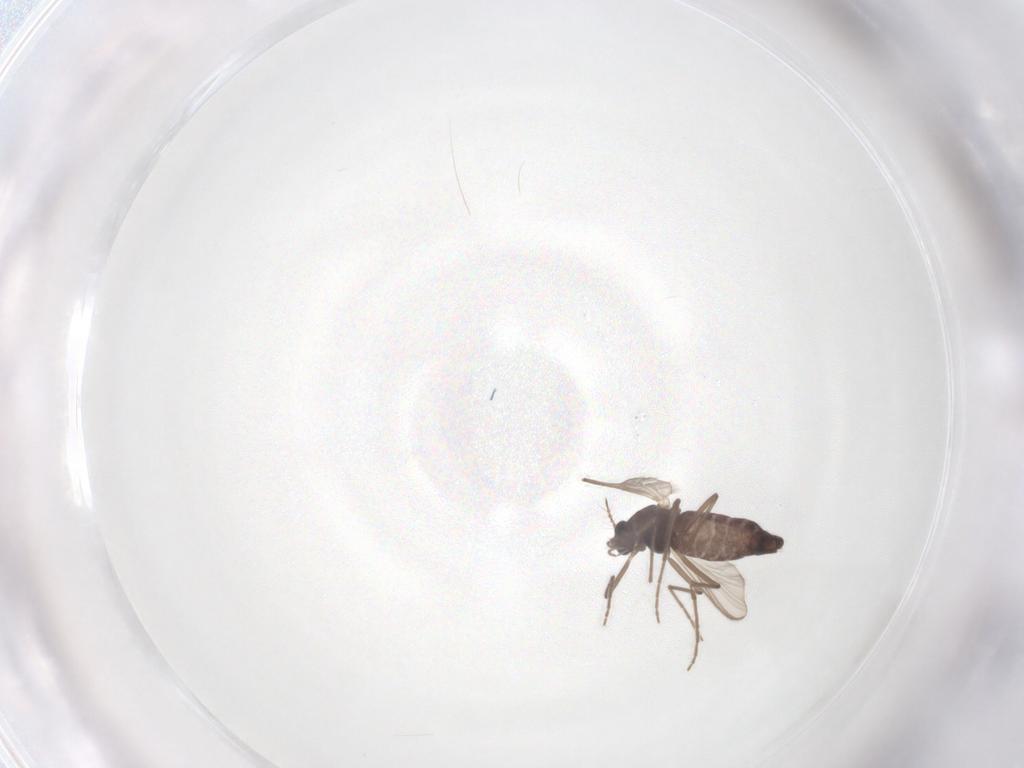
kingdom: Animalia
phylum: Arthropoda
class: Insecta
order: Diptera
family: Chironomidae
